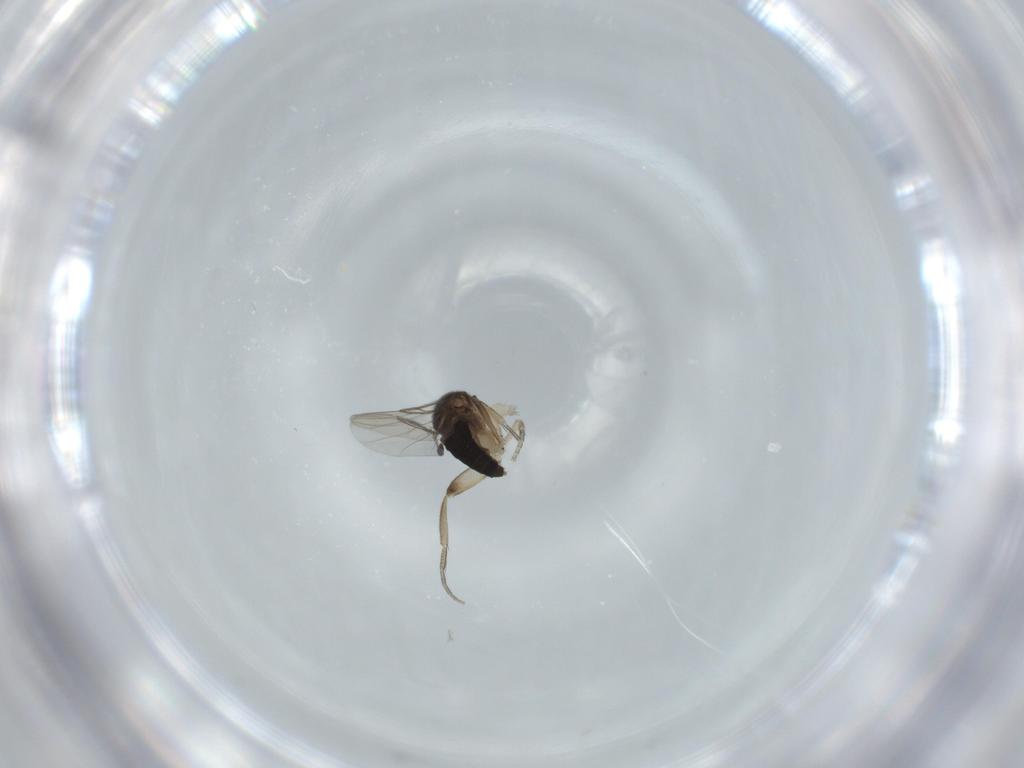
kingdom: Animalia
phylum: Arthropoda
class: Insecta
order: Diptera
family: Phoridae
